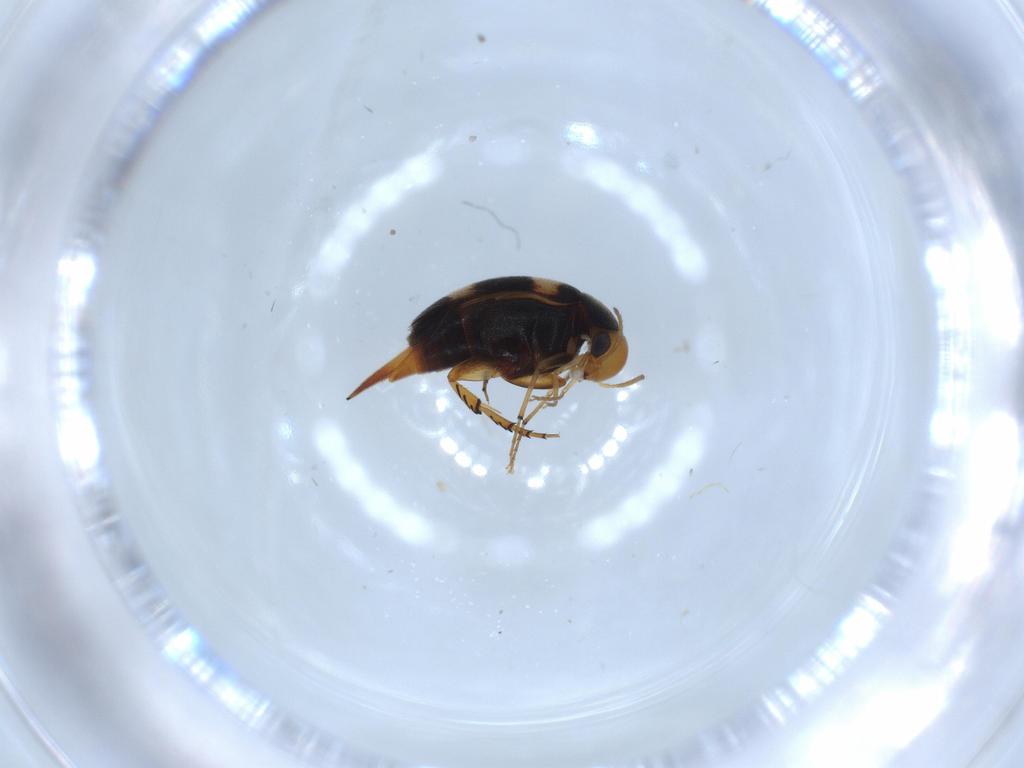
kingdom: Animalia
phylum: Arthropoda
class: Insecta
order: Coleoptera
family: Mordellidae
